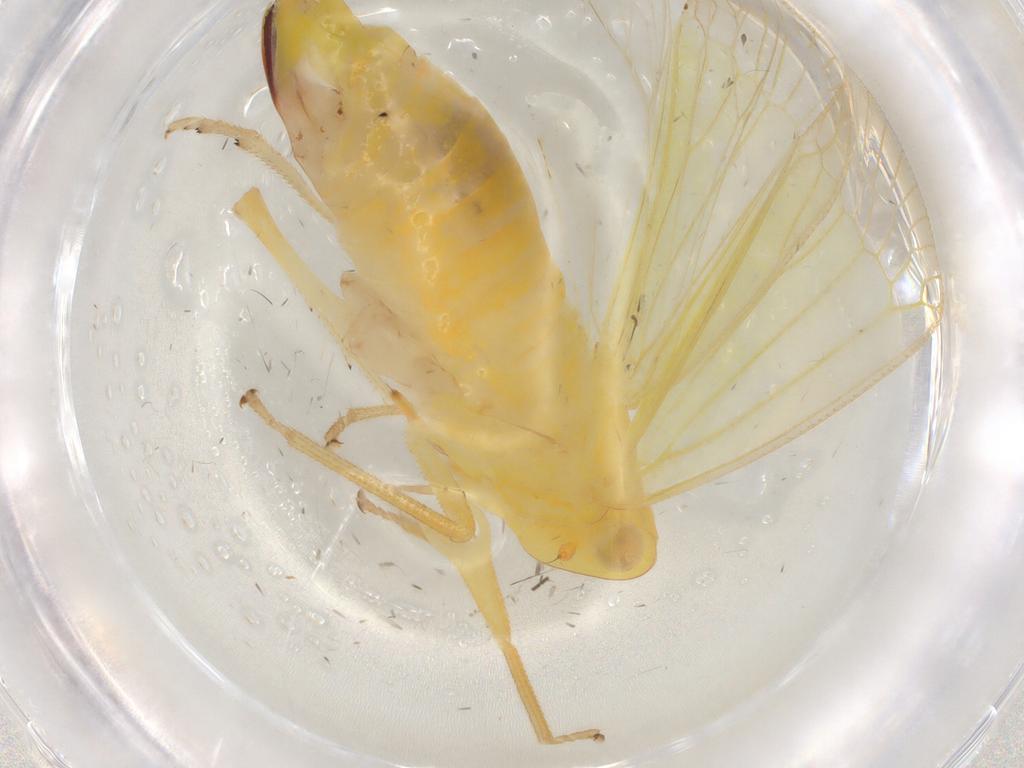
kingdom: Animalia
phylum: Arthropoda
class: Insecta
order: Hemiptera
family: Tropiduchidae
